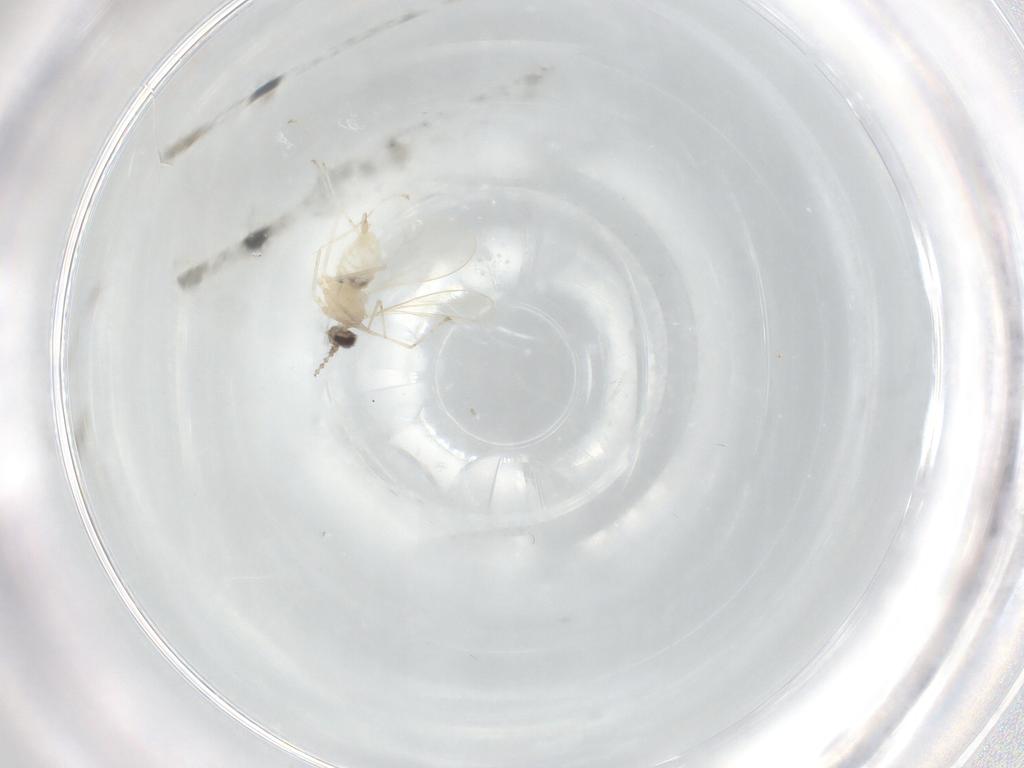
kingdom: Animalia
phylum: Arthropoda
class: Insecta
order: Diptera
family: Cecidomyiidae
